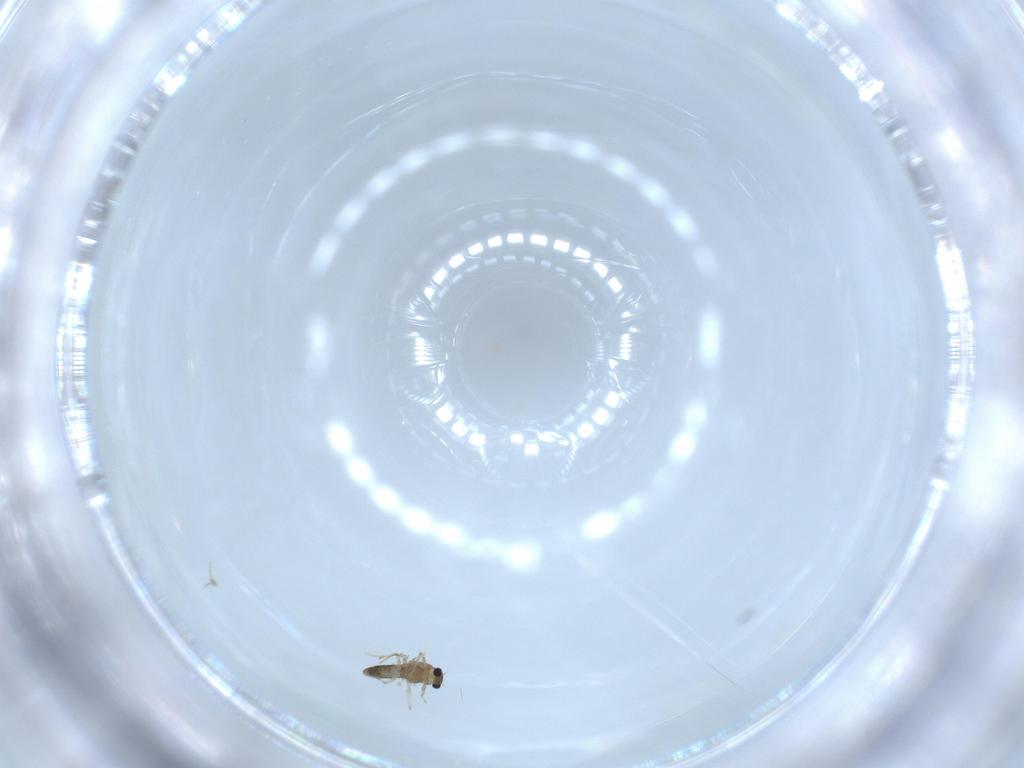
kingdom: Animalia
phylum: Arthropoda
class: Insecta
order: Diptera
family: Chironomidae
